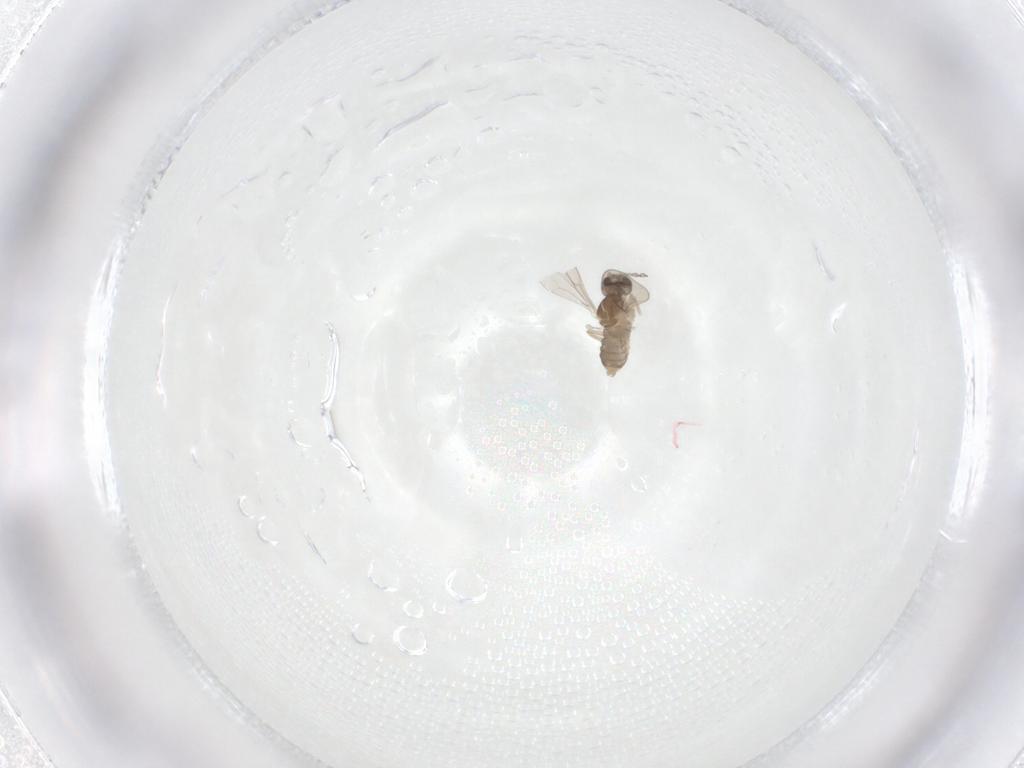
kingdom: Animalia
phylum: Arthropoda
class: Insecta
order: Diptera
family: Cecidomyiidae
